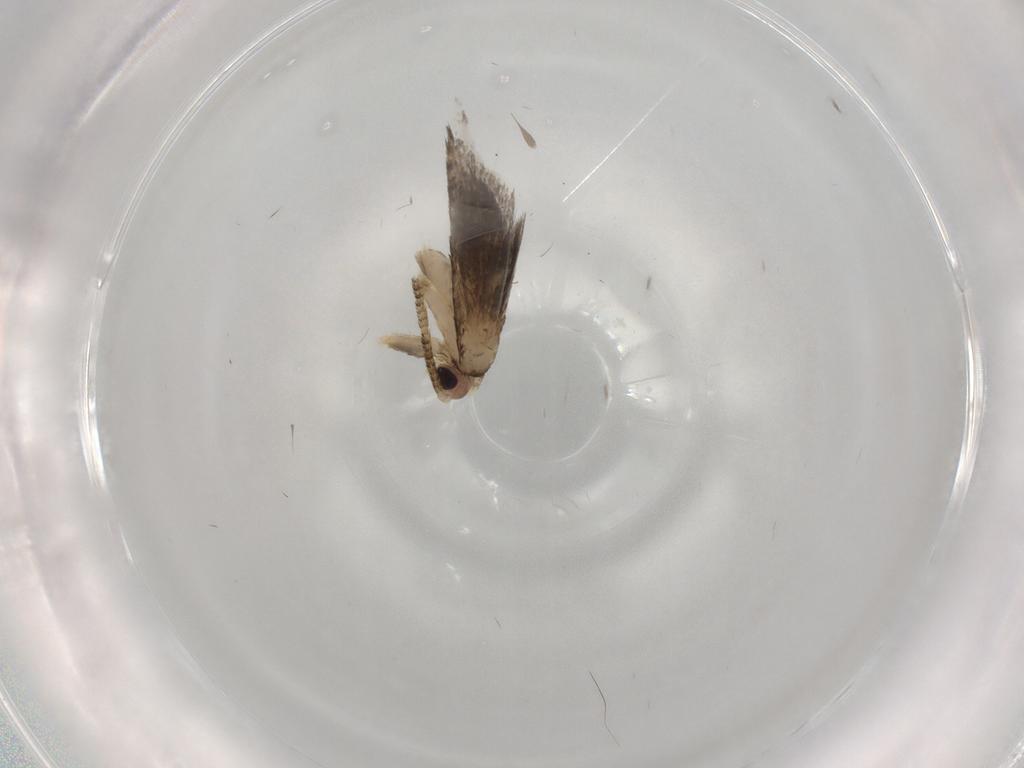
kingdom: Animalia
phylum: Arthropoda
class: Insecta
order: Lepidoptera
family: Tineidae
